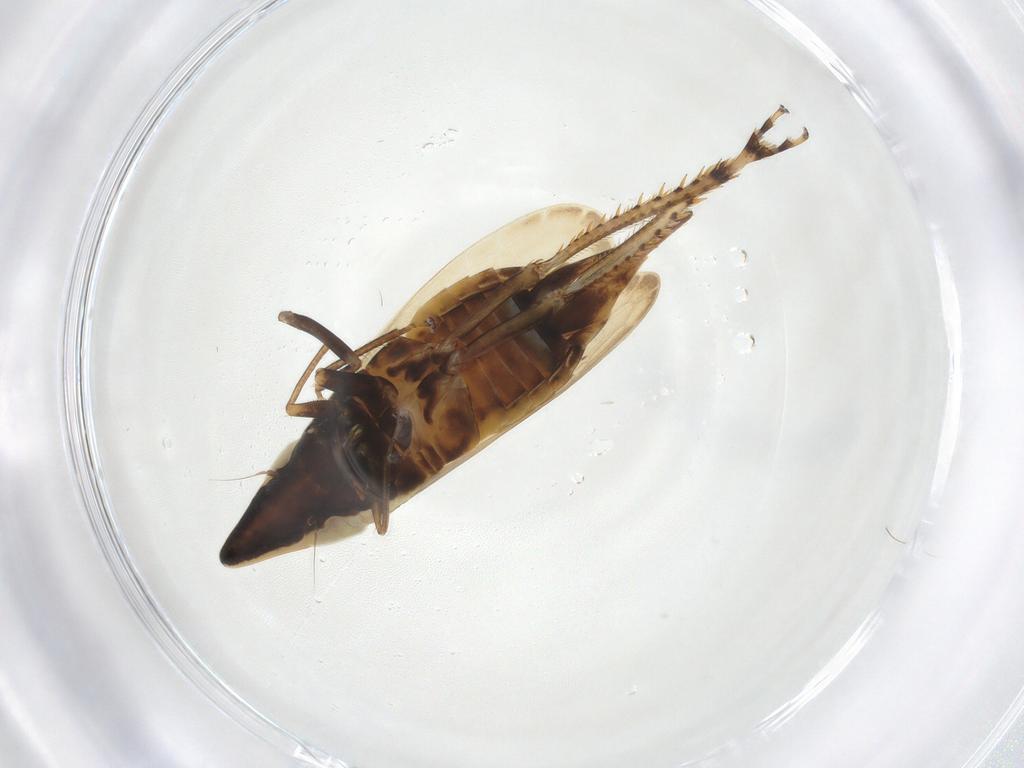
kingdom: Animalia
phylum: Arthropoda
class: Insecta
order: Hemiptera
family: Cicadellidae
